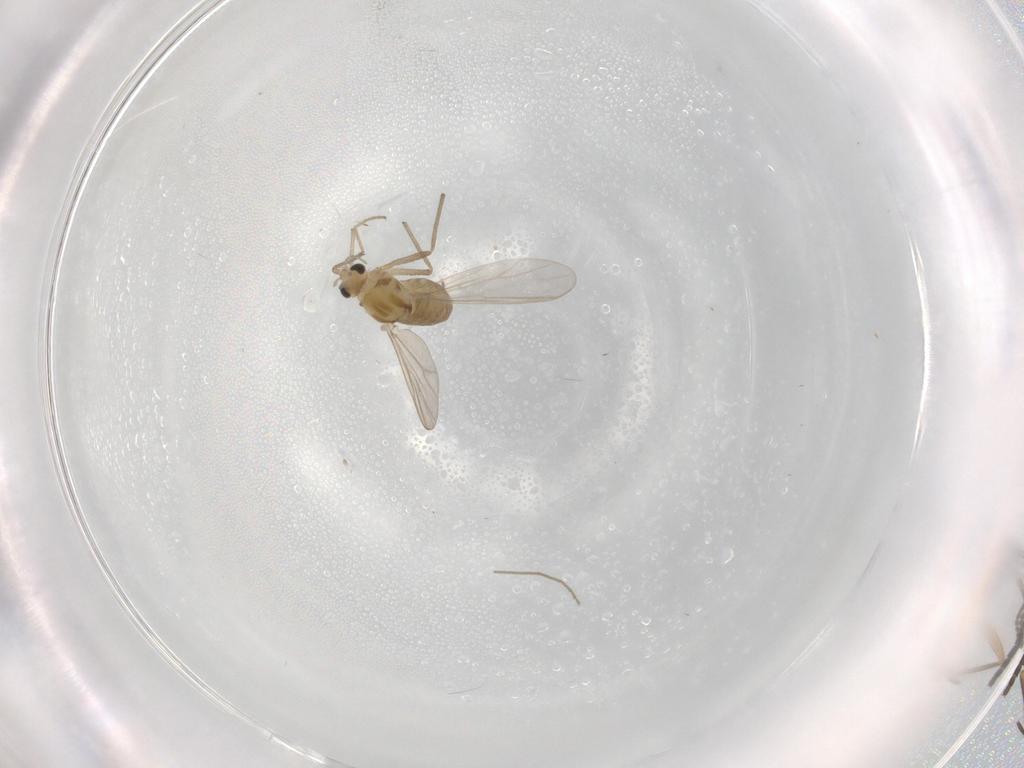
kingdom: Animalia
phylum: Arthropoda
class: Insecta
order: Diptera
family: Chironomidae
